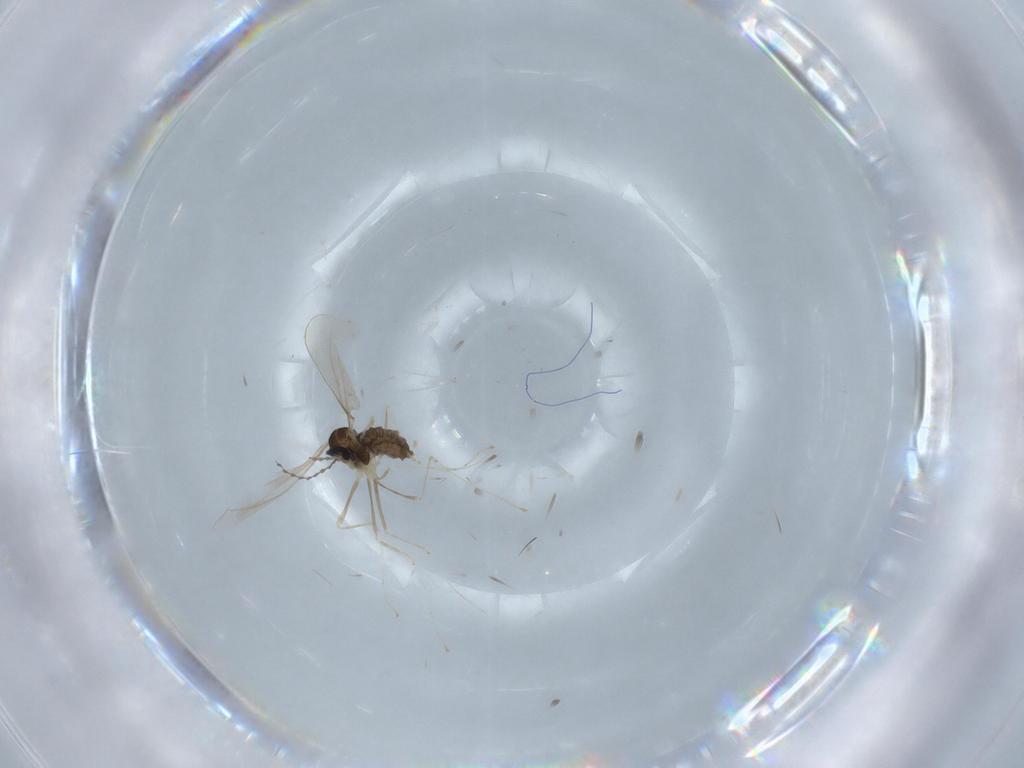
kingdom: Animalia
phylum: Arthropoda
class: Insecta
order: Diptera
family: Cecidomyiidae
